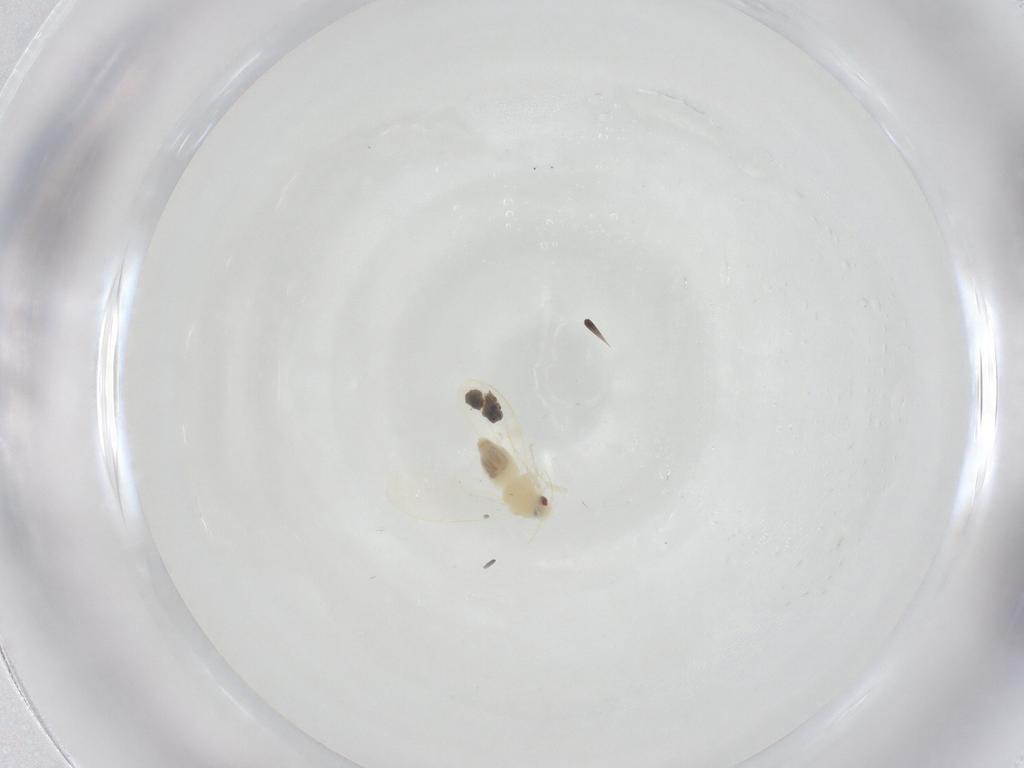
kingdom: Animalia
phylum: Arthropoda
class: Insecta
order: Hemiptera
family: Aleyrodidae
